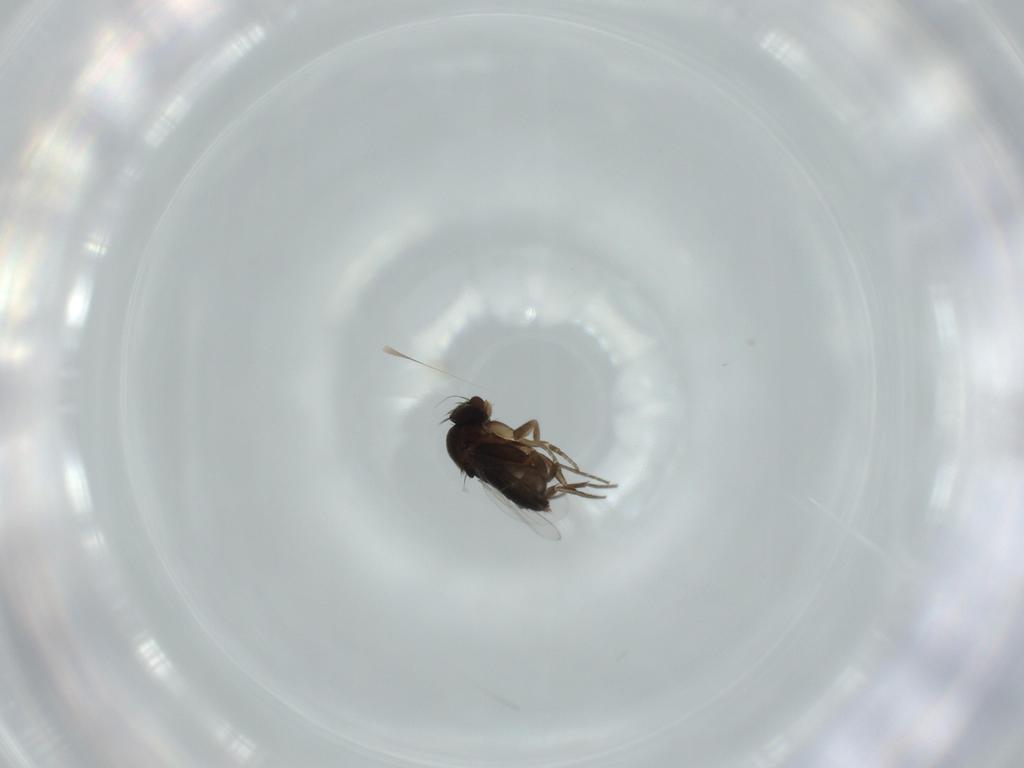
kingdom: Animalia
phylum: Arthropoda
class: Insecta
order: Diptera
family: Phoridae
